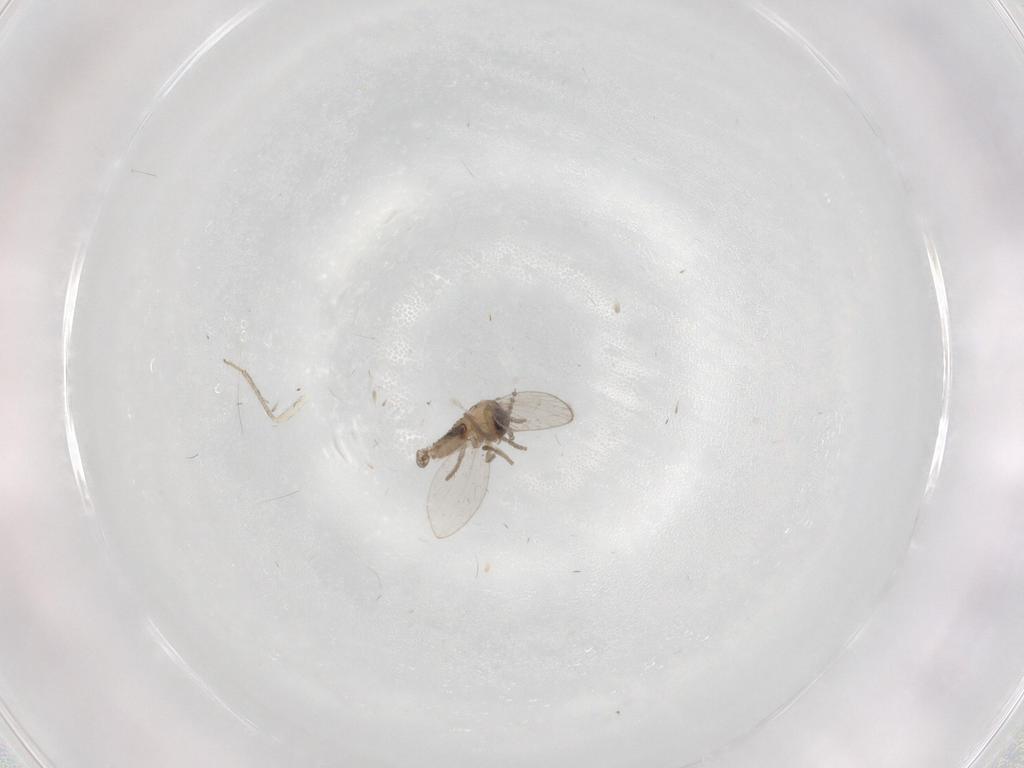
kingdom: Animalia
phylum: Arthropoda
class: Insecta
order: Diptera
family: Psychodidae
